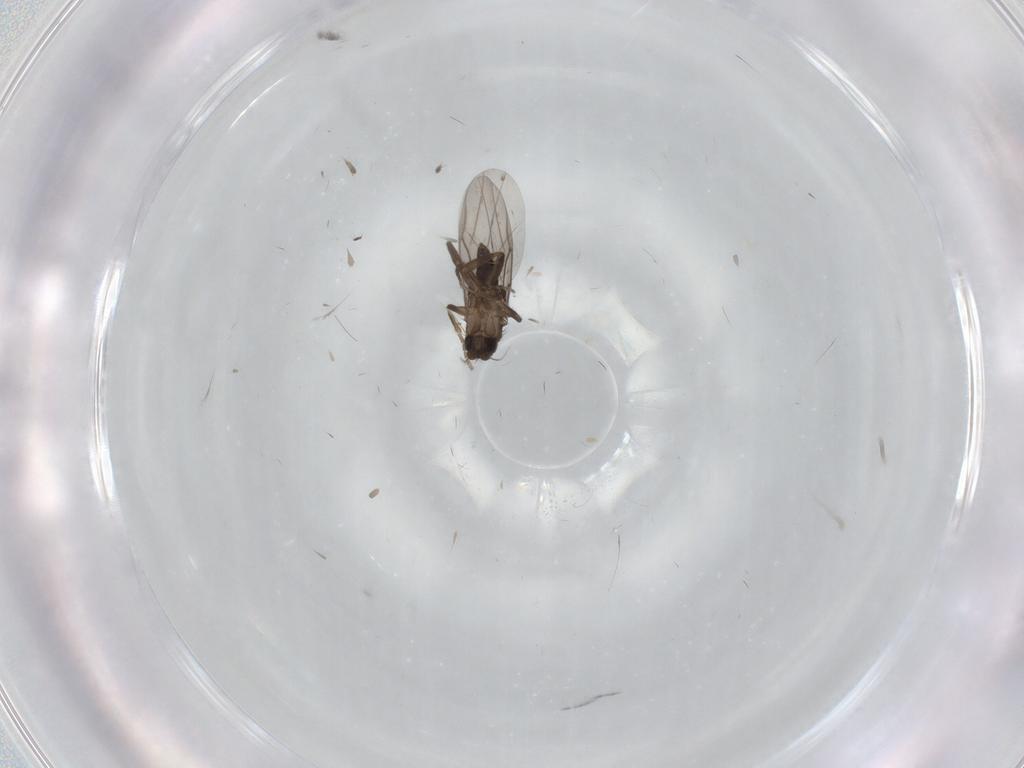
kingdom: Animalia
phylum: Arthropoda
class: Insecta
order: Diptera
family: Phoridae
